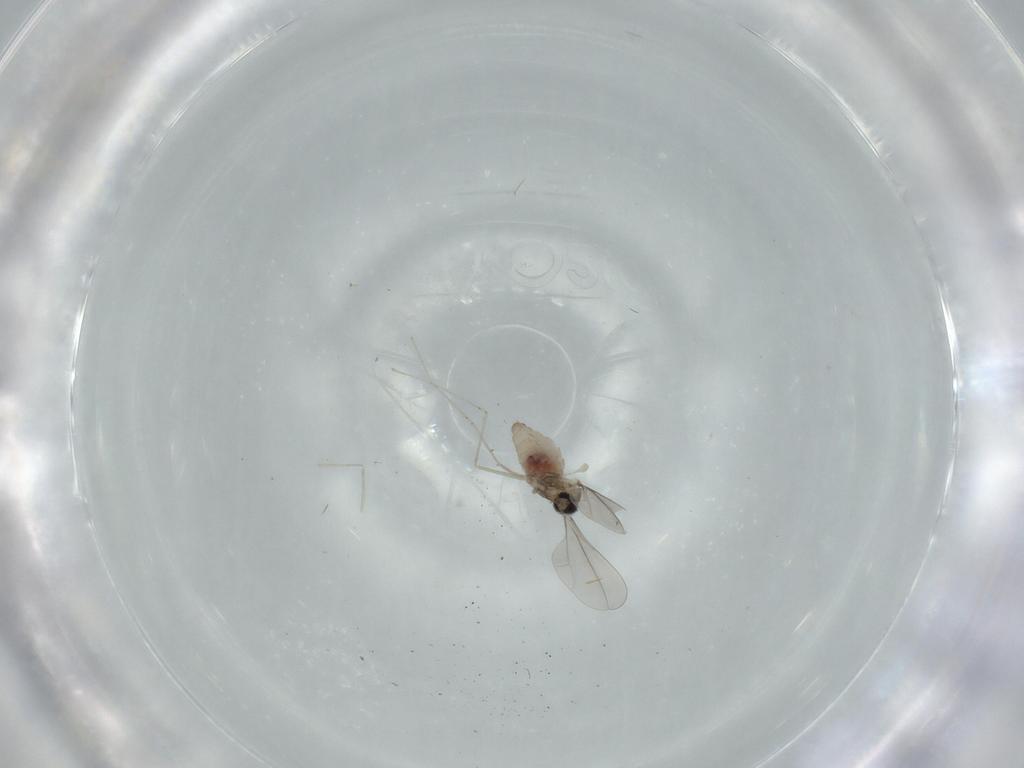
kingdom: Animalia
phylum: Arthropoda
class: Insecta
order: Diptera
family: Cecidomyiidae
